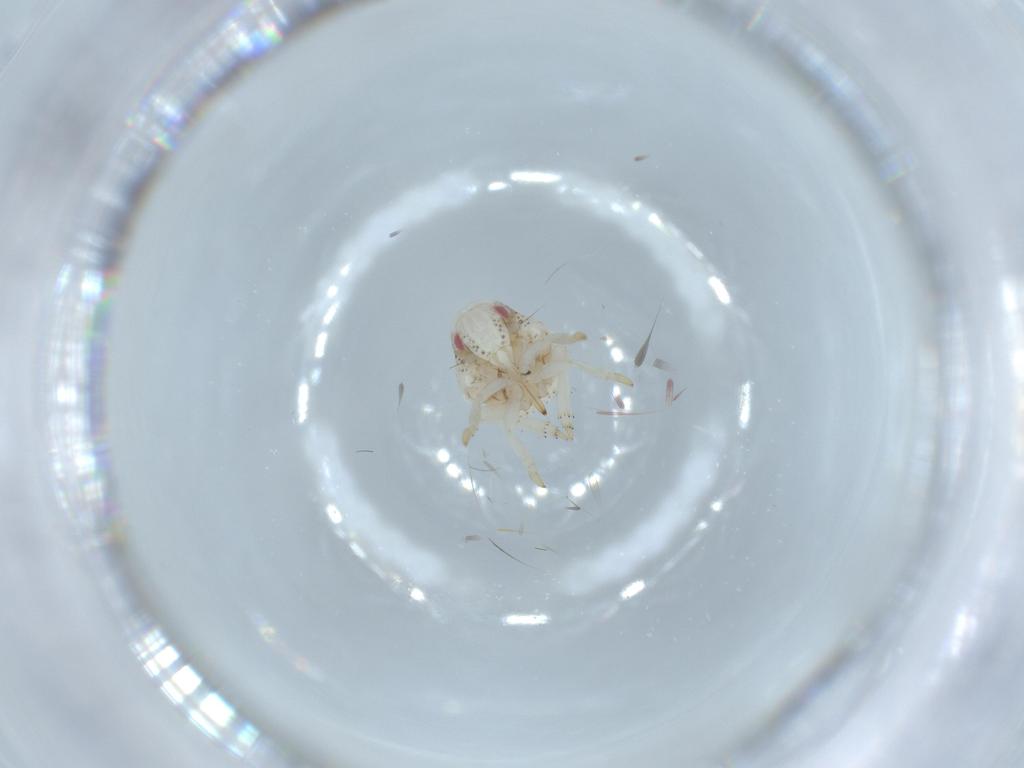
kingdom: Animalia
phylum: Arthropoda
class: Insecta
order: Hemiptera
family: Acanaloniidae
